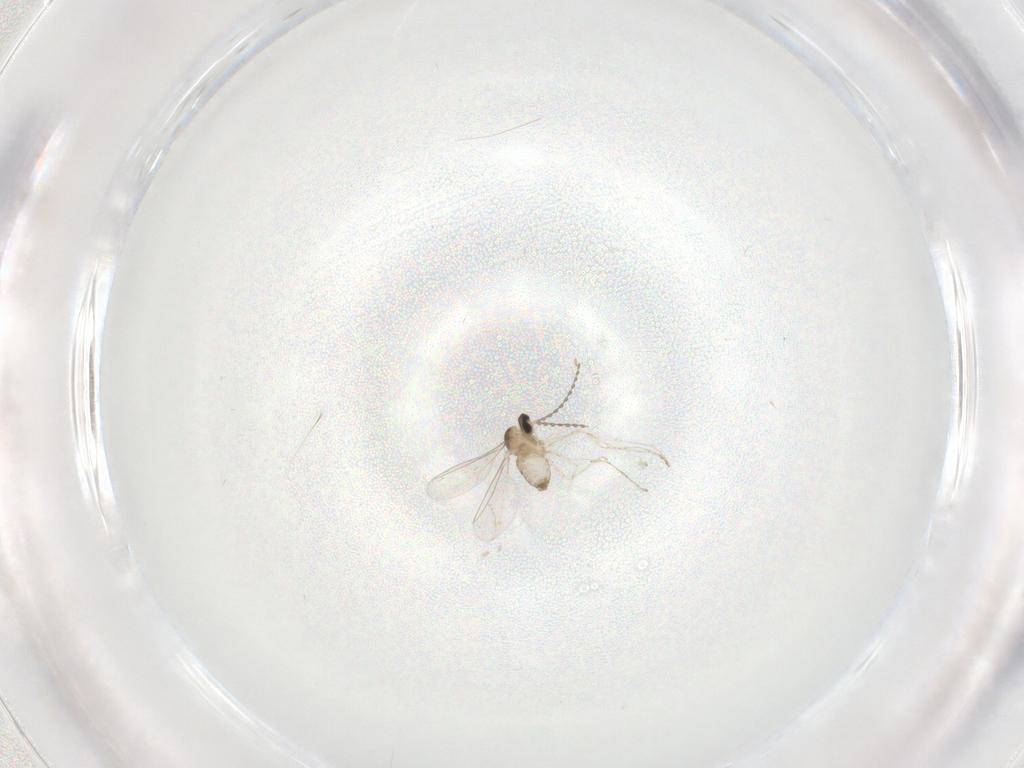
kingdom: Animalia
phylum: Arthropoda
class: Insecta
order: Diptera
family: Cecidomyiidae
